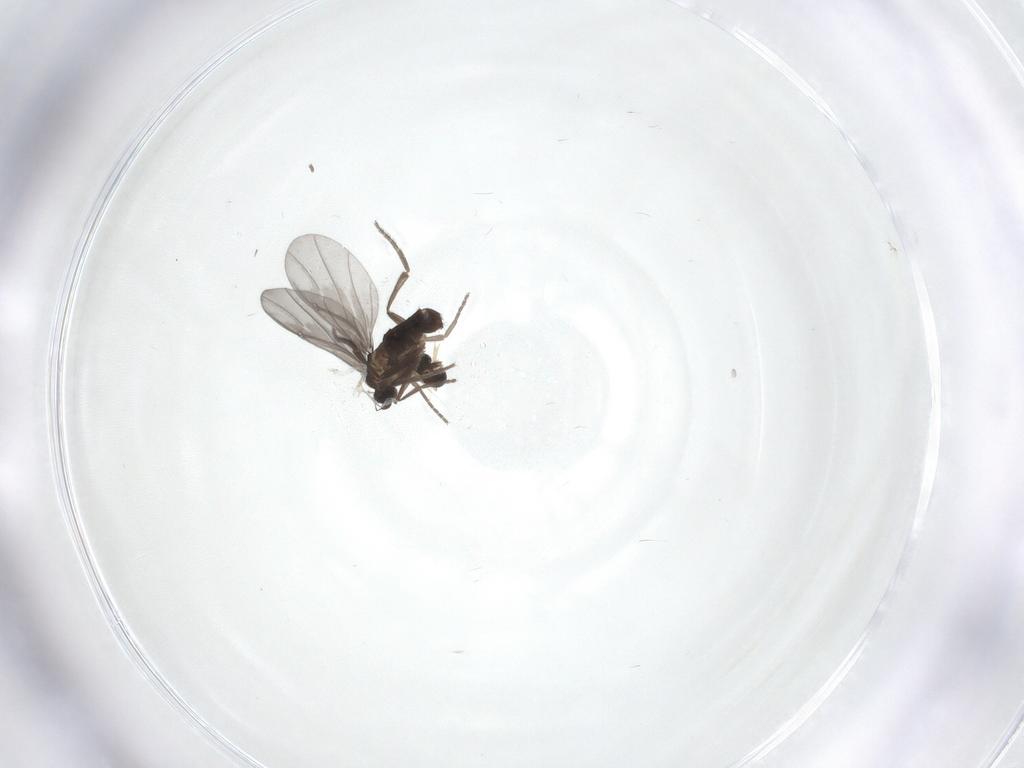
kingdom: Animalia
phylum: Arthropoda
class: Insecta
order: Diptera
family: Phoridae
